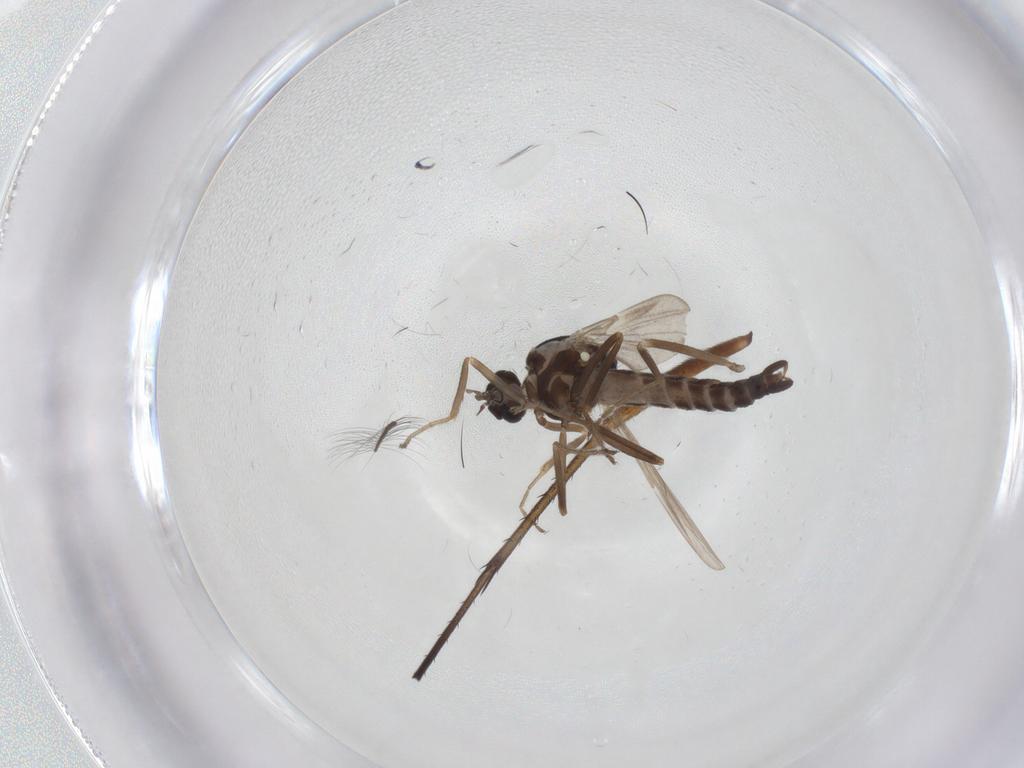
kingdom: Animalia
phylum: Arthropoda
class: Insecta
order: Diptera
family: Ceratopogonidae
